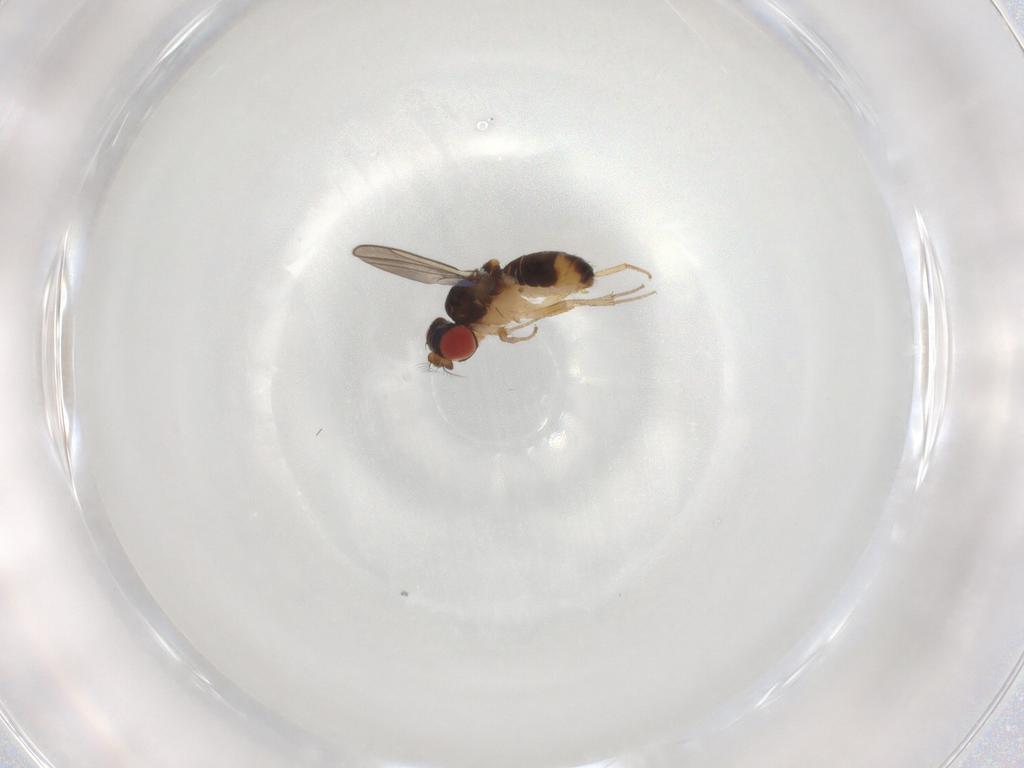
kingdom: Animalia
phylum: Arthropoda
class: Insecta
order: Diptera
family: Drosophilidae
